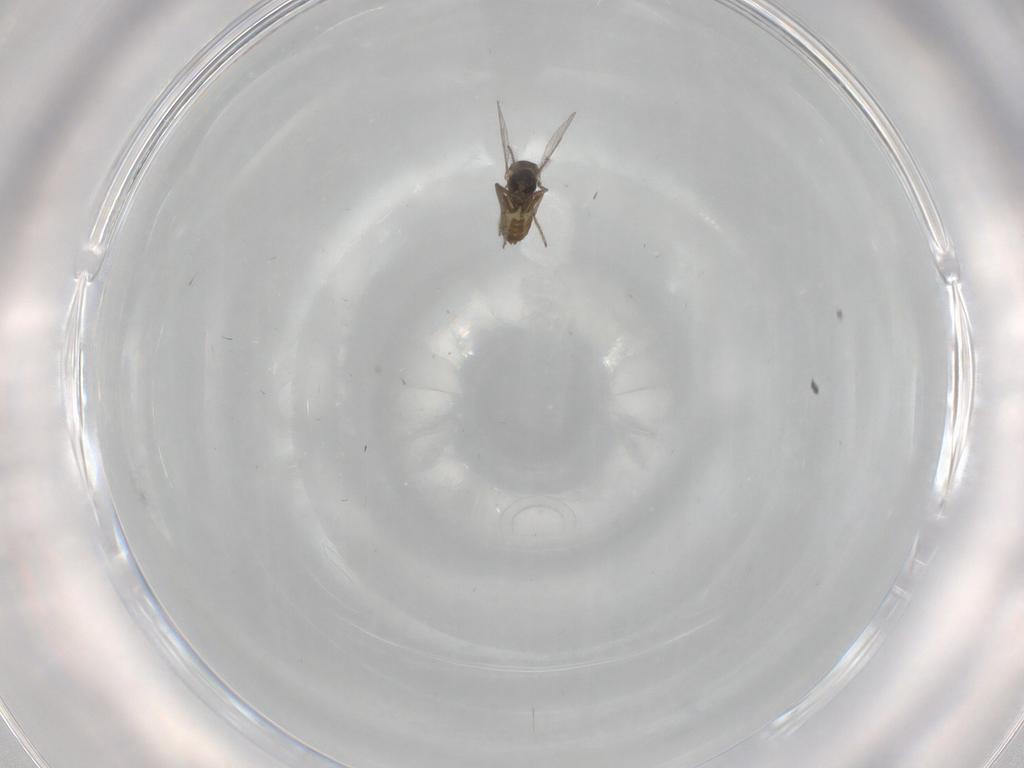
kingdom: Animalia
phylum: Arthropoda
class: Insecta
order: Diptera
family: Ceratopogonidae
